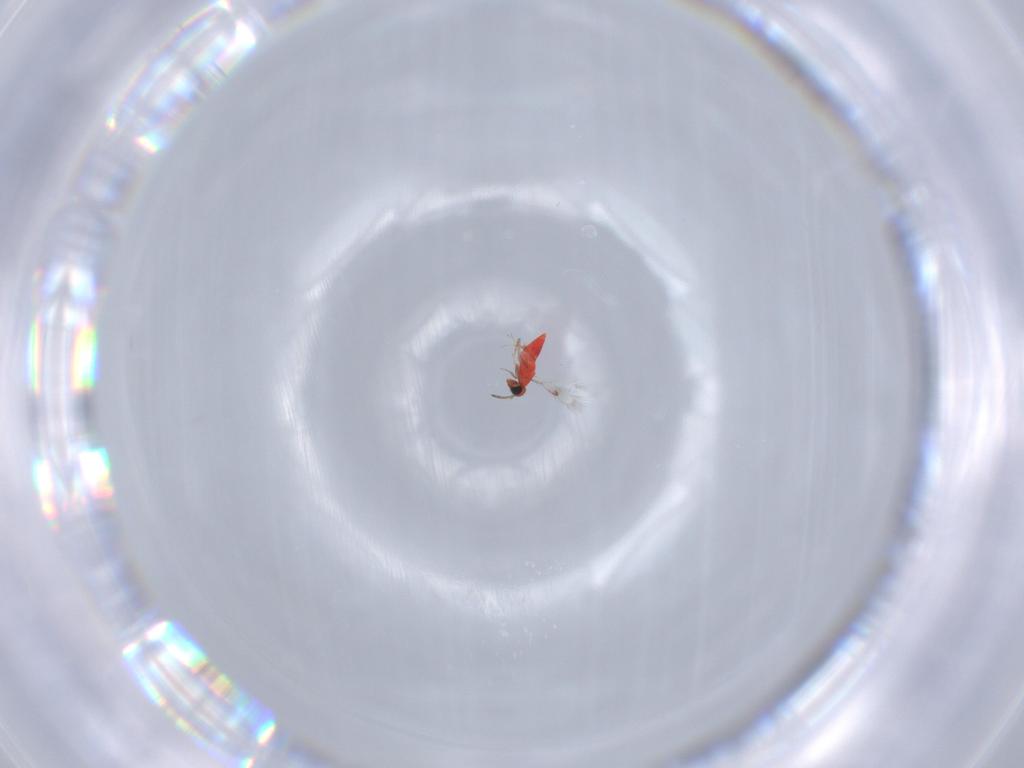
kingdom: Animalia
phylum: Arthropoda
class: Insecta
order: Hymenoptera
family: Trichogrammatidae
